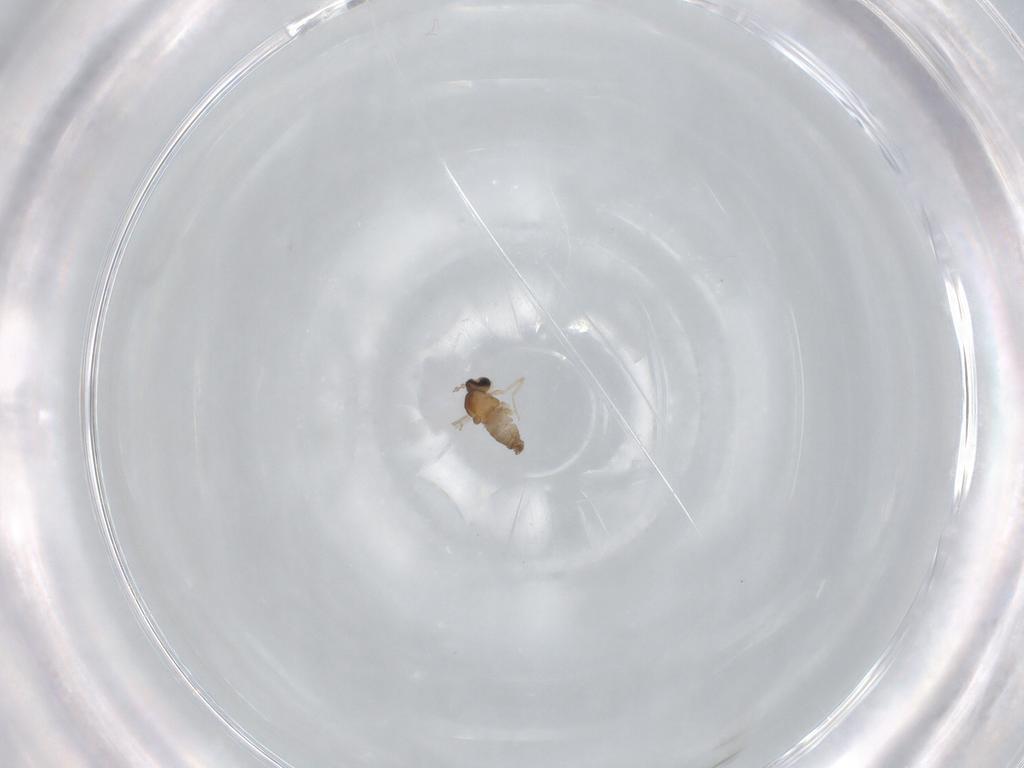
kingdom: Animalia
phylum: Arthropoda
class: Insecta
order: Diptera
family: Cecidomyiidae
